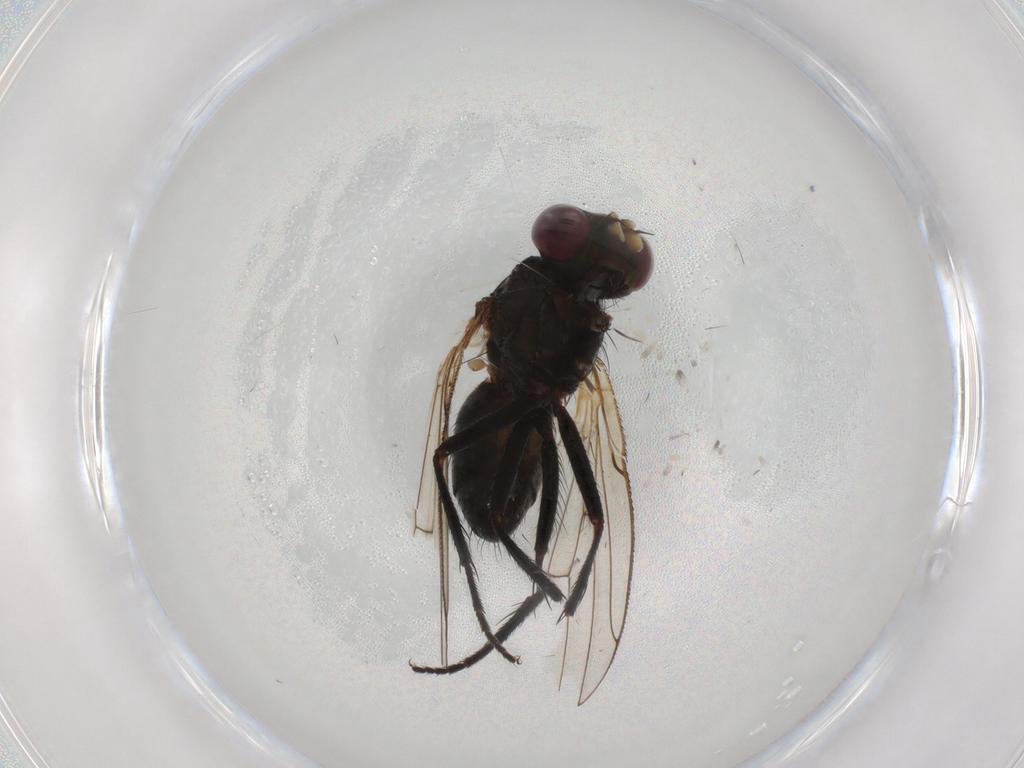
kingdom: Animalia
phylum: Arthropoda
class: Insecta
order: Diptera
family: Muscidae
